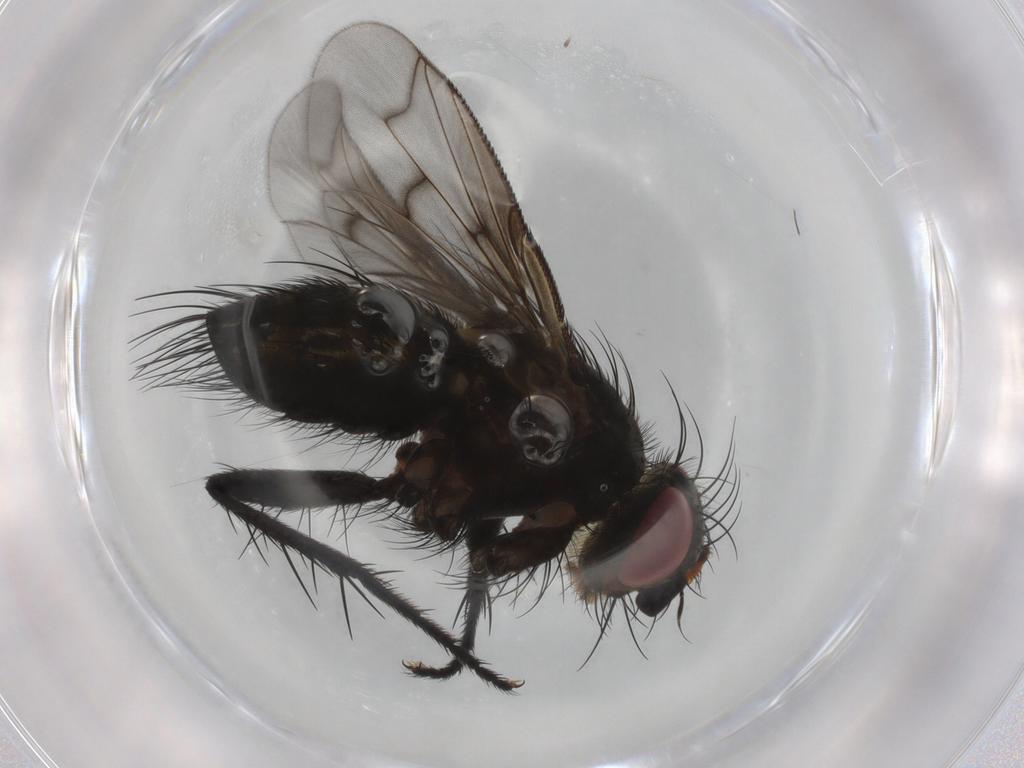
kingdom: Animalia
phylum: Arthropoda
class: Insecta
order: Diptera
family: Tachinidae
